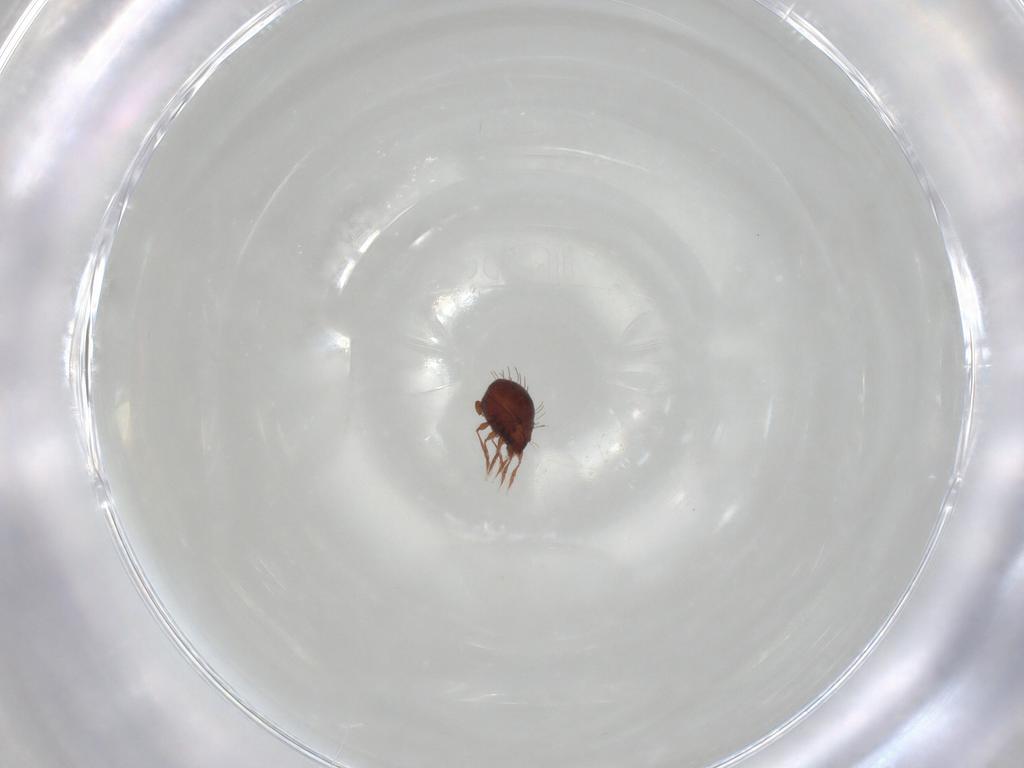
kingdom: Animalia
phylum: Arthropoda
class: Arachnida
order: Sarcoptiformes
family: Caloppiidae
